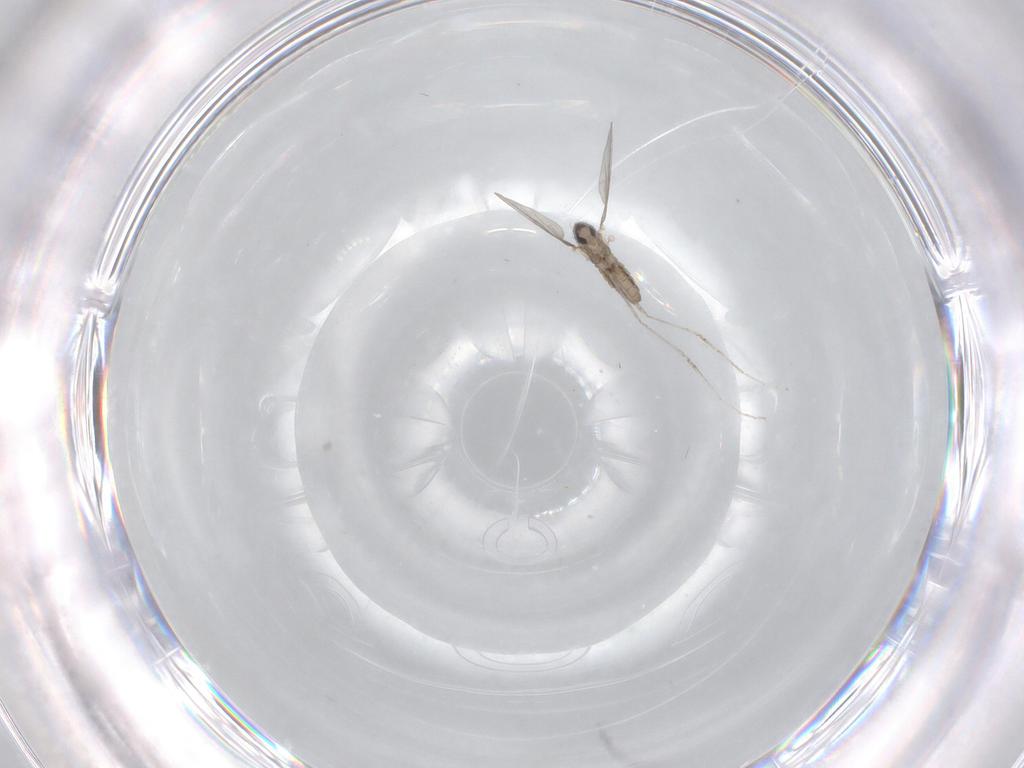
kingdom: Animalia
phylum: Arthropoda
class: Insecta
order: Diptera
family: Cecidomyiidae
